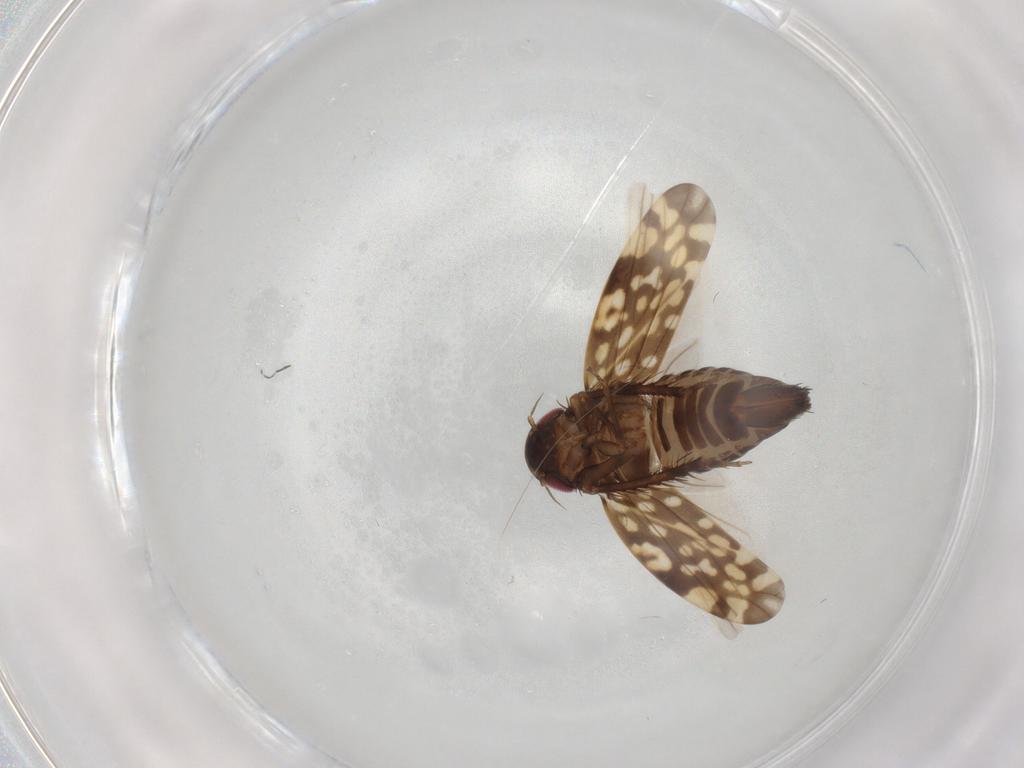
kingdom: Animalia
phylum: Arthropoda
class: Insecta
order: Hemiptera
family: Cicadellidae
